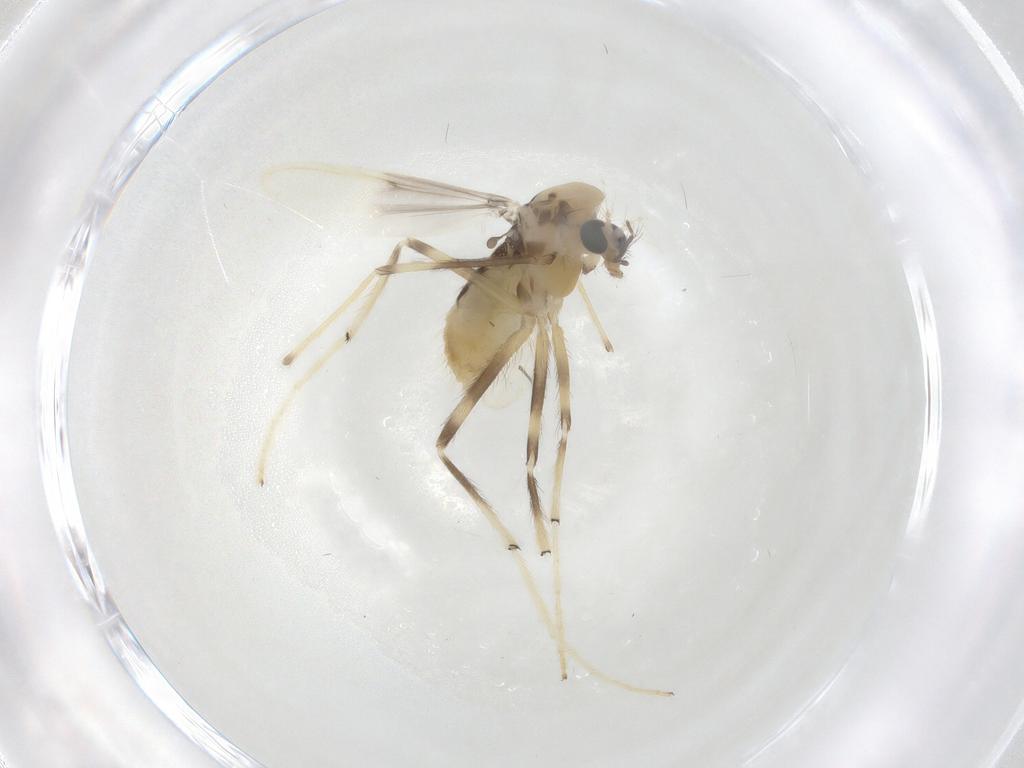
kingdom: Animalia
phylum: Arthropoda
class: Insecta
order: Diptera
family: Chironomidae
